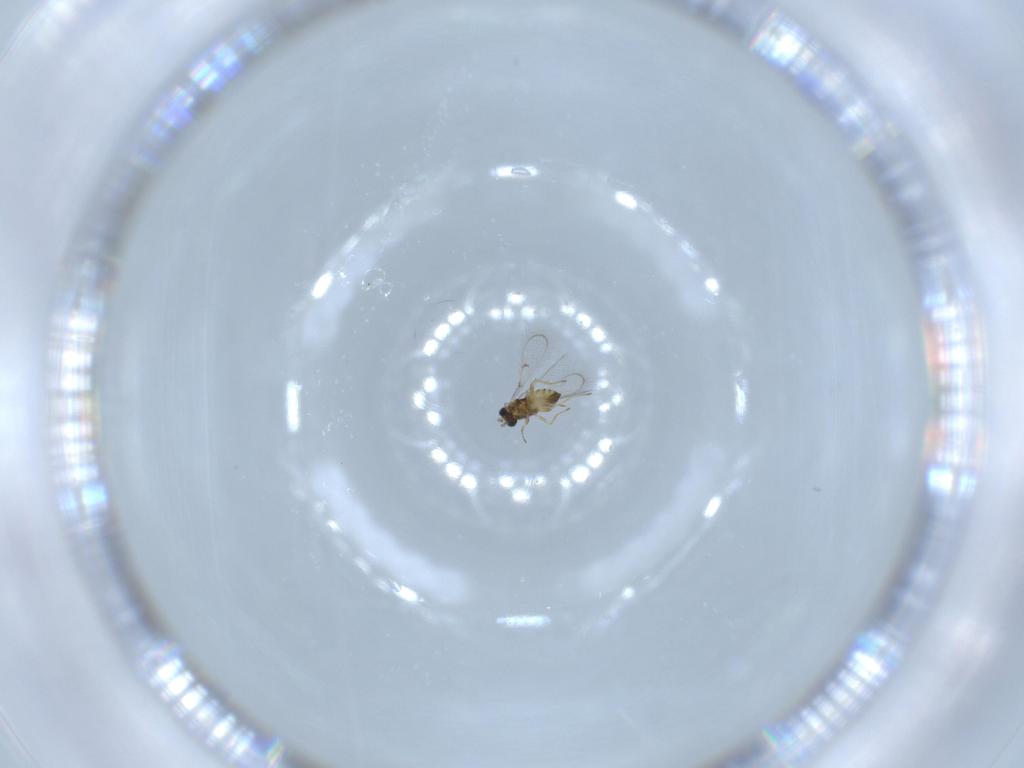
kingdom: Animalia
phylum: Arthropoda
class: Insecta
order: Hymenoptera
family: Trichogrammatidae
